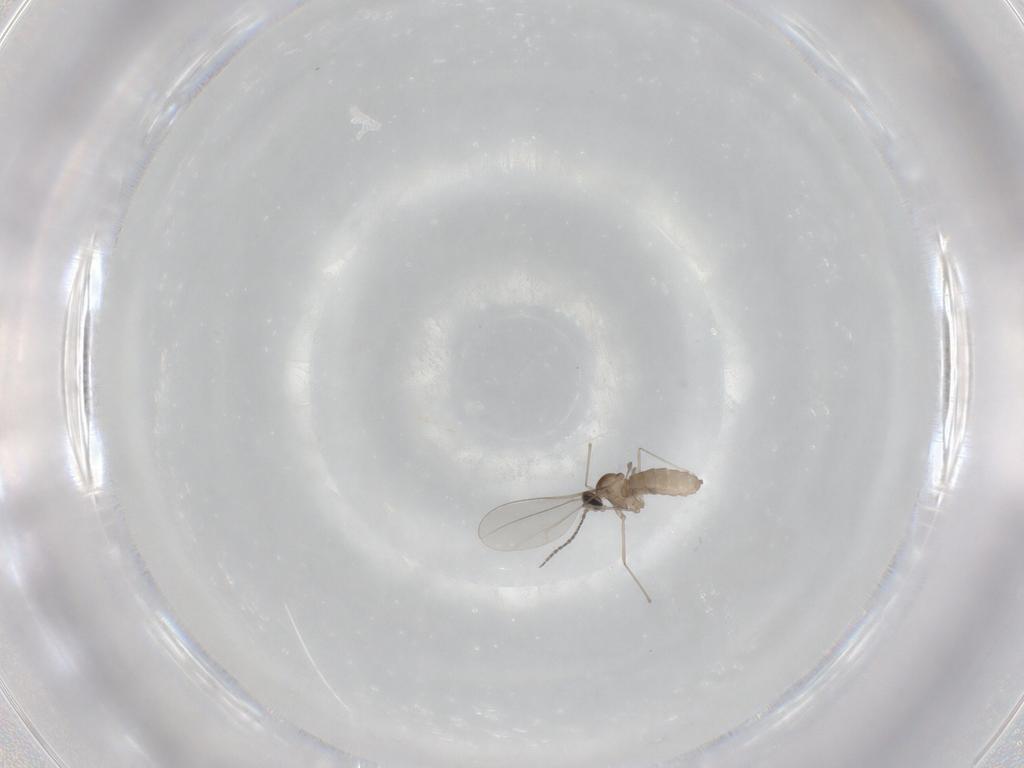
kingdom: Animalia
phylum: Arthropoda
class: Insecta
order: Diptera
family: Cecidomyiidae
